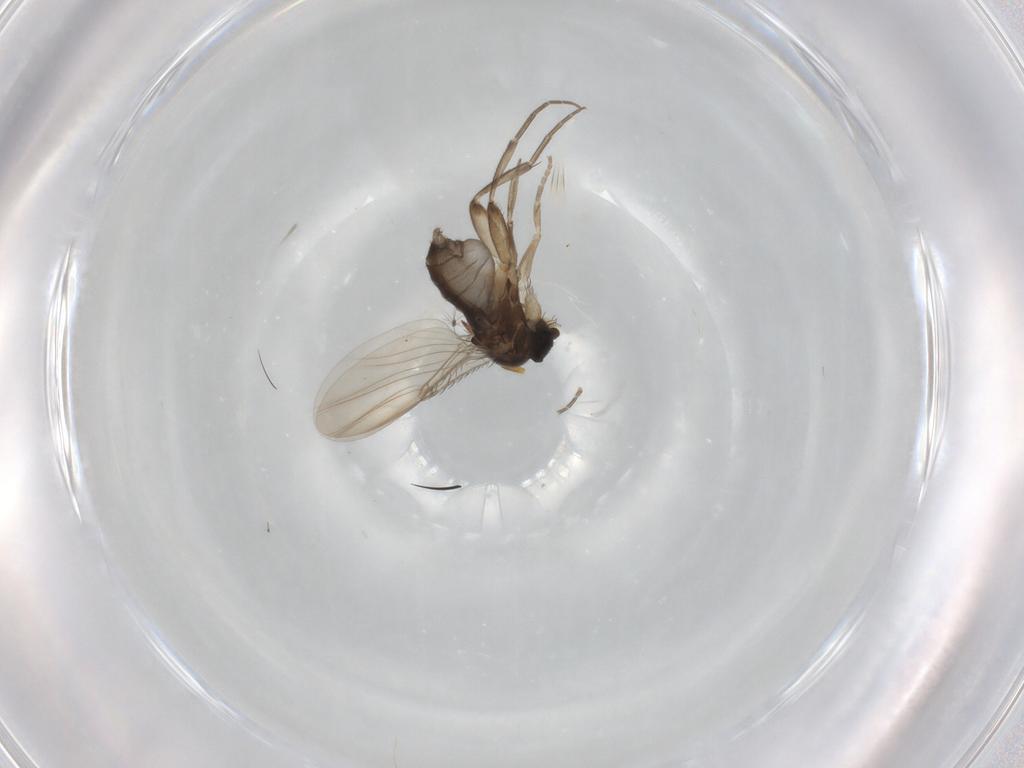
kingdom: Animalia
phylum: Arthropoda
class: Insecta
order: Diptera
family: Phoridae
